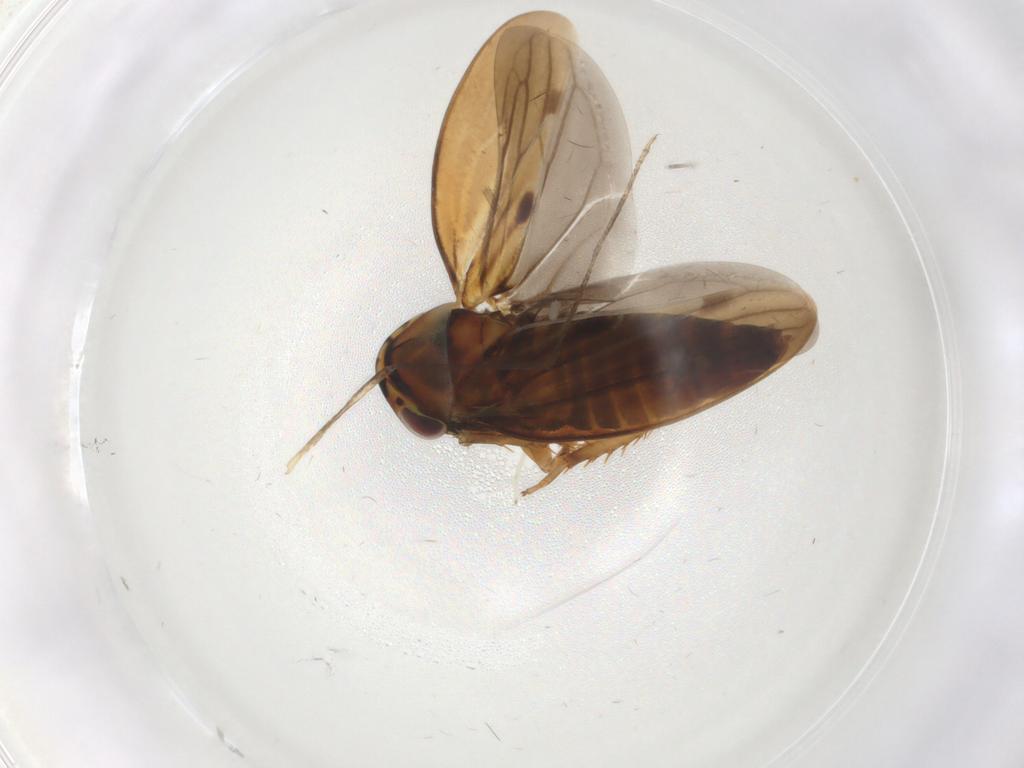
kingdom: Animalia
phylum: Arthropoda
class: Insecta
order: Hemiptera
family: Cicadellidae
